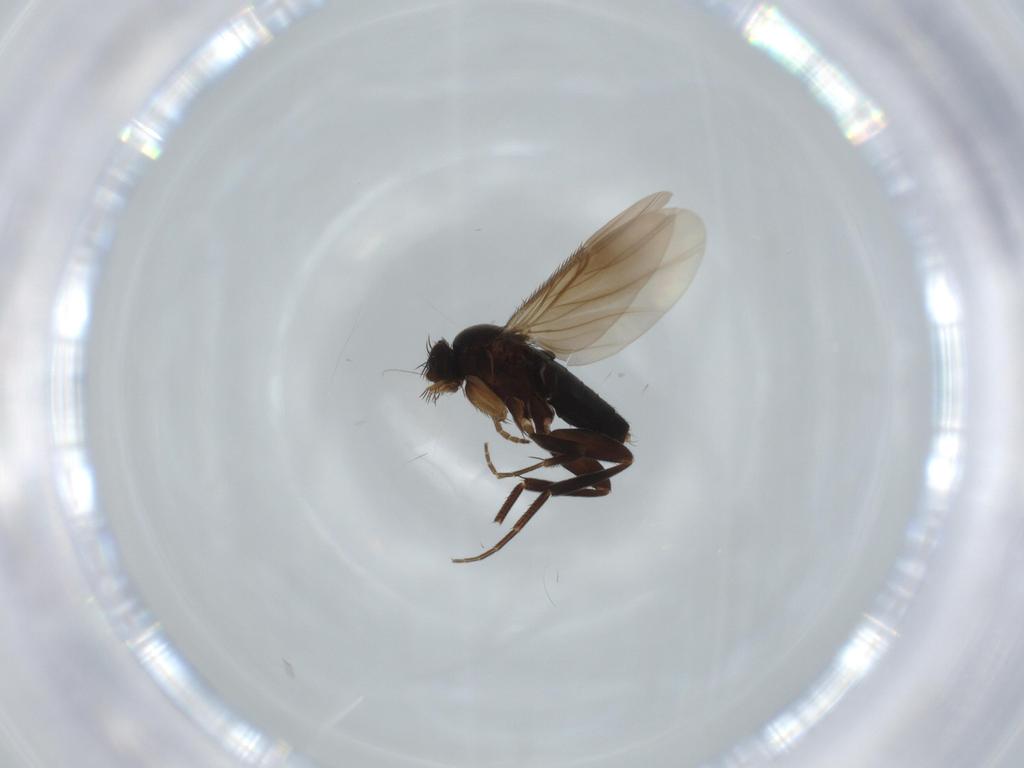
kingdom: Animalia
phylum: Arthropoda
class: Insecta
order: Diptera
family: Phoridae
